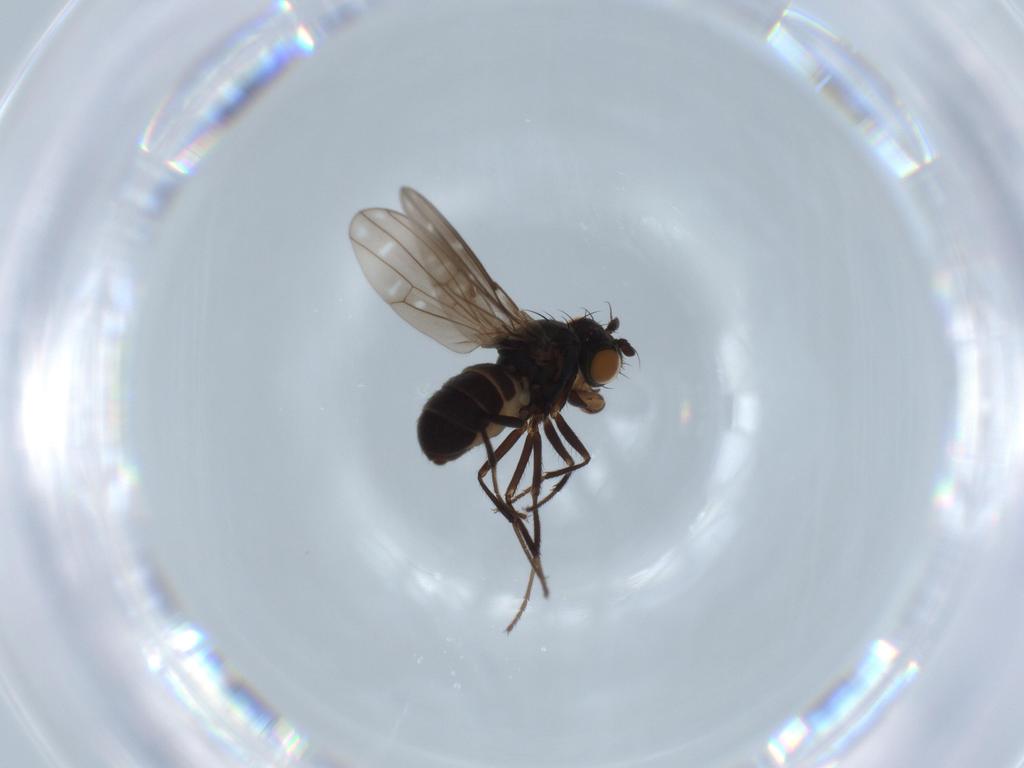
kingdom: Animalia
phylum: Arthropoda
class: Insecta
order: Diptera
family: Ephydridae
